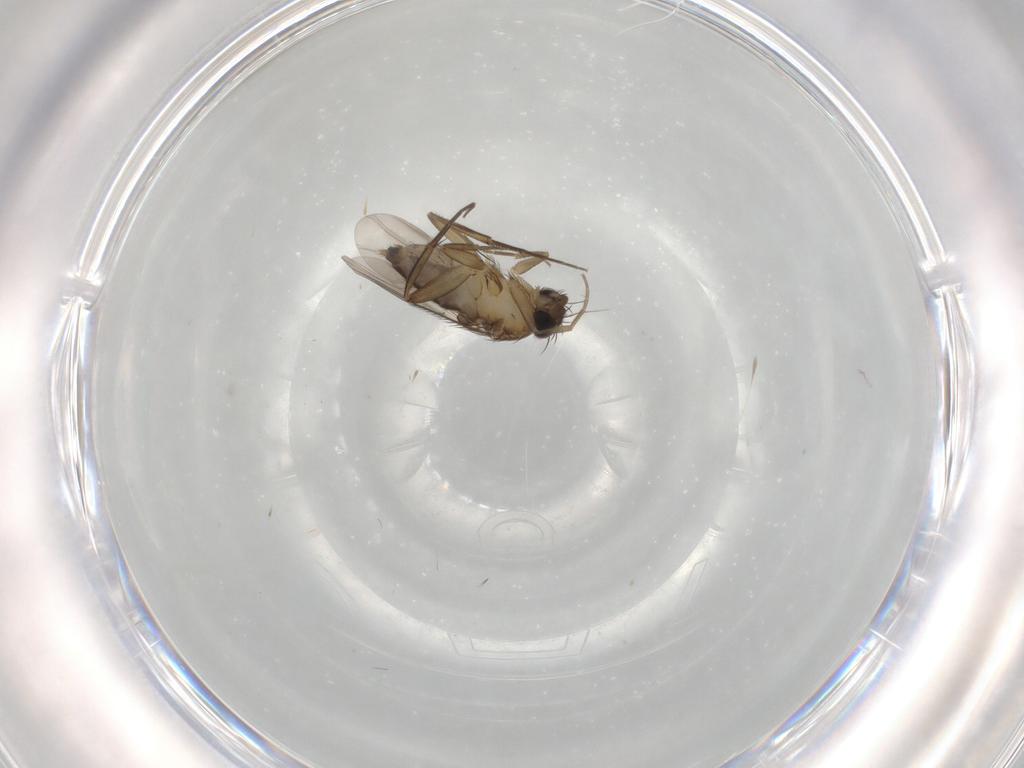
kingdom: Animalia
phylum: Arthropoda
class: Insecta
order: Diptera
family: Phoridae
